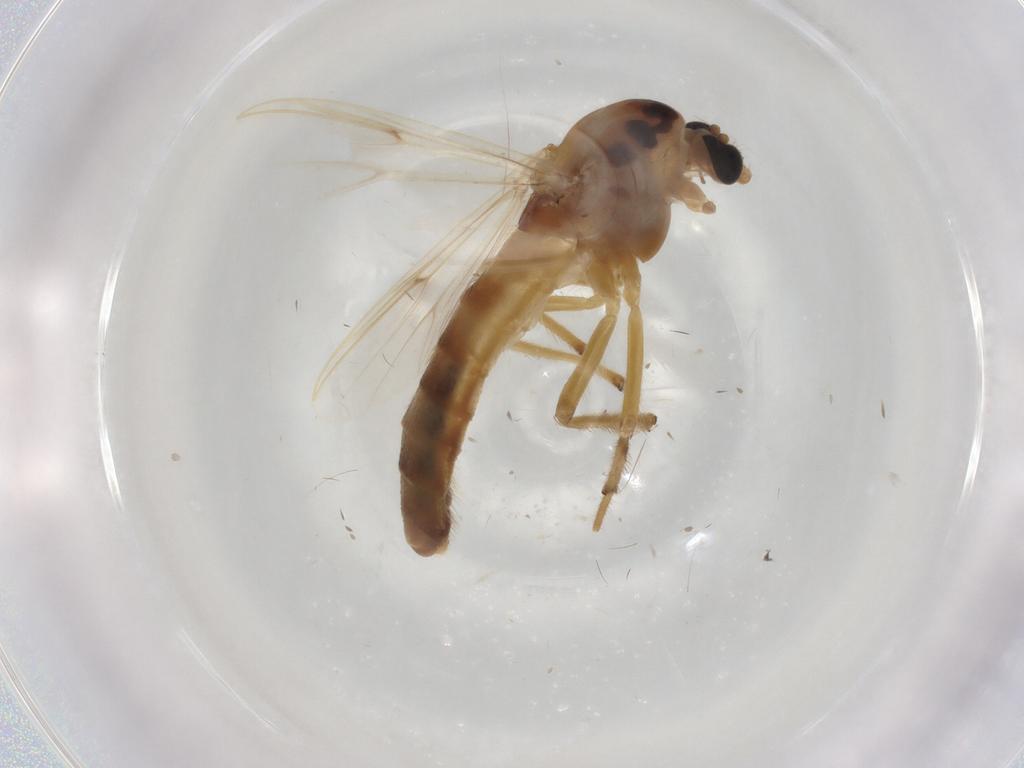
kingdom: Animalia
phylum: Arthropoda
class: Insecta
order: Diptera
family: Chironomidae
